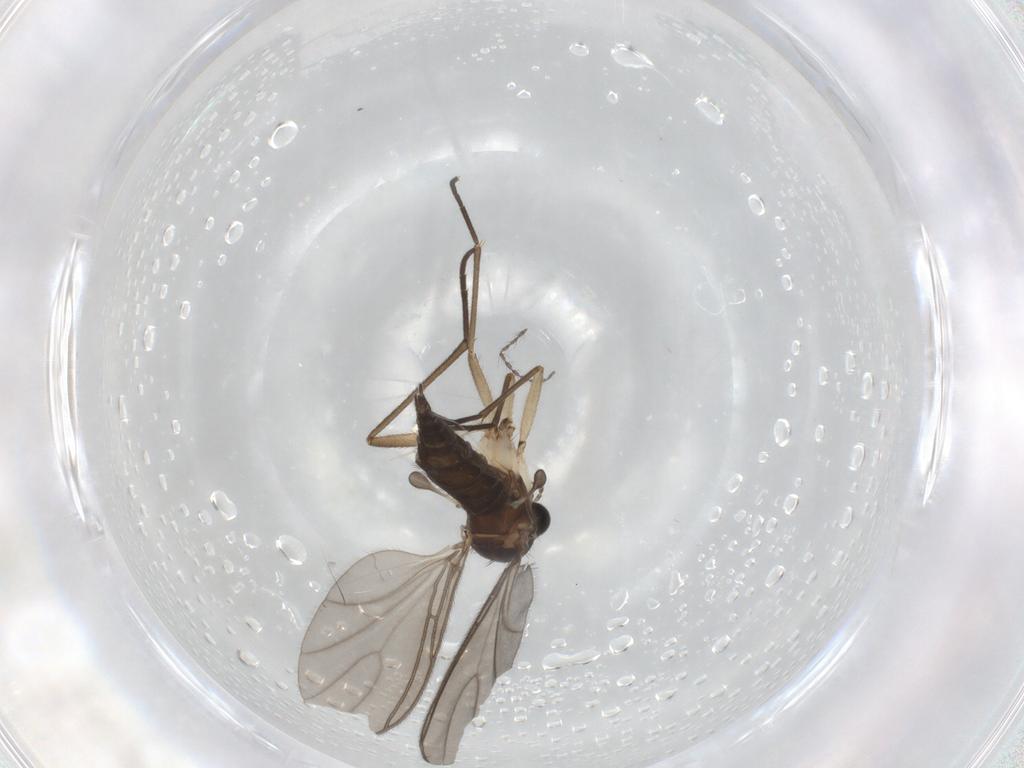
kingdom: Animalia
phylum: Arthropoda
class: Insecta
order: Diptera
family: Sciaridae
